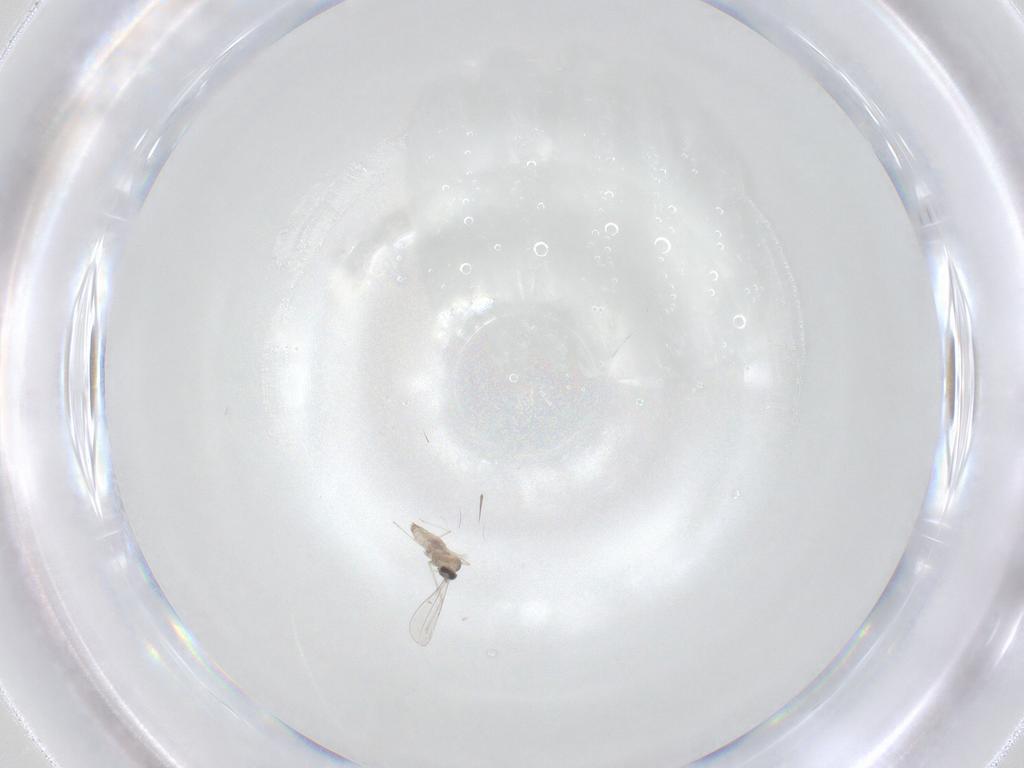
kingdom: Animalia
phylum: Arthropoda
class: Insecta
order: Diptera
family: Cecidomyiidae
